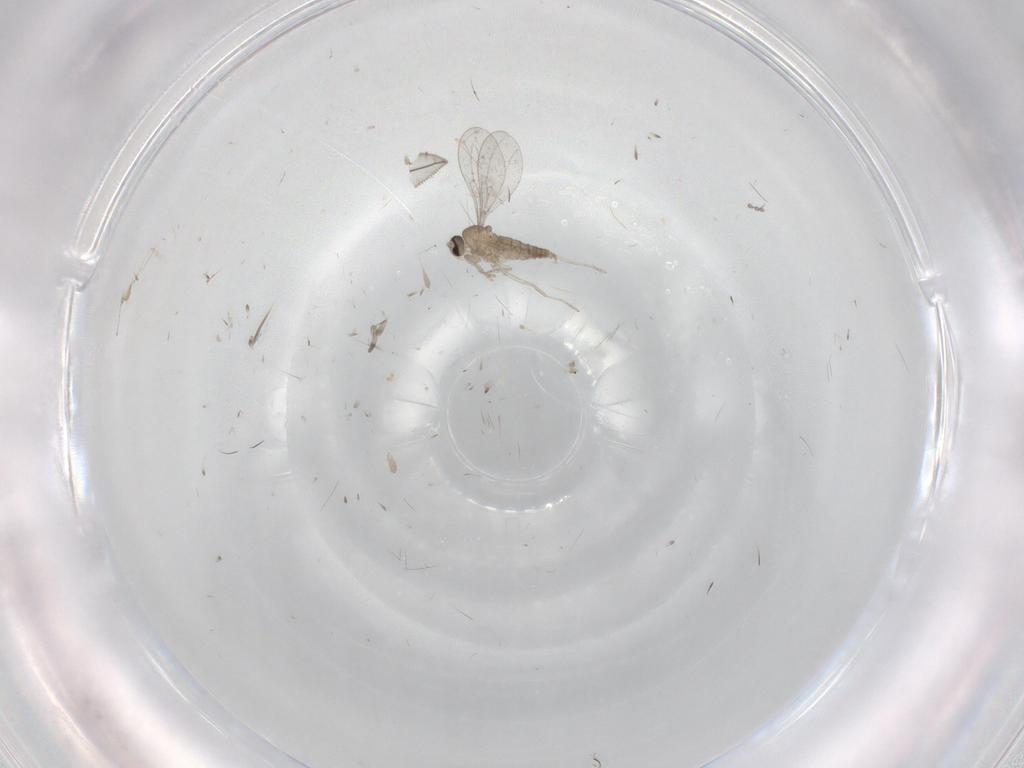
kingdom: Animalia
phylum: Arthropoda
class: Insecta
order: Diptera
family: Cecidomyiidae
